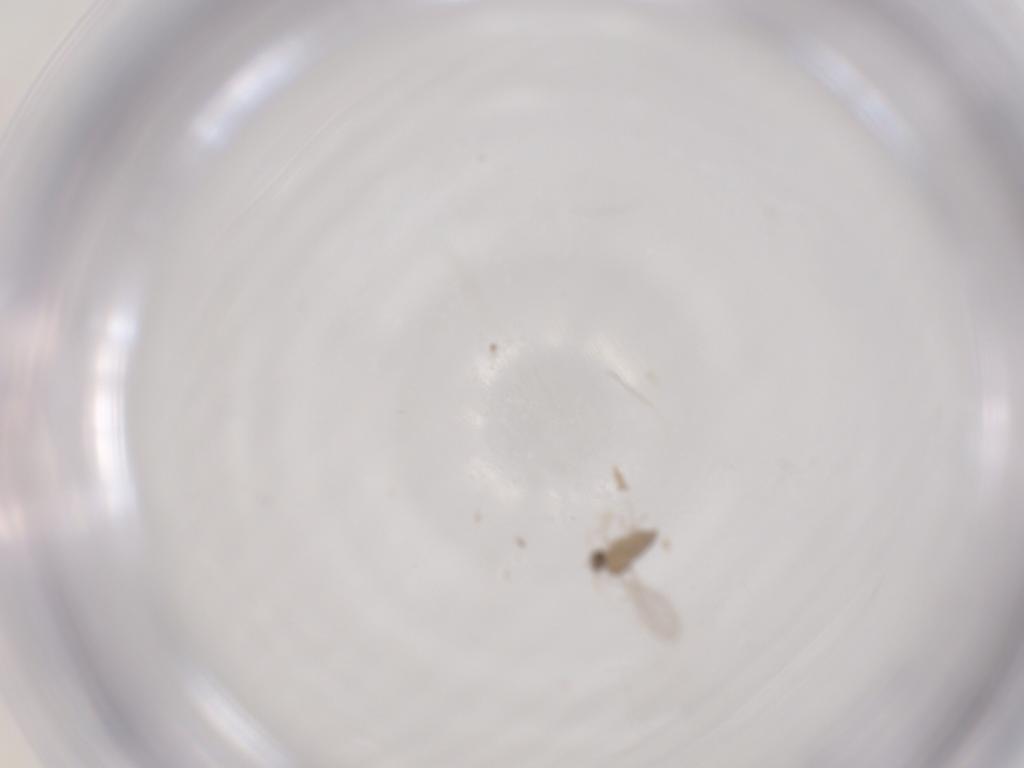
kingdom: Animalia
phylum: Arthropoda
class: Insecta
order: Diptera
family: Cecidomyiidae
